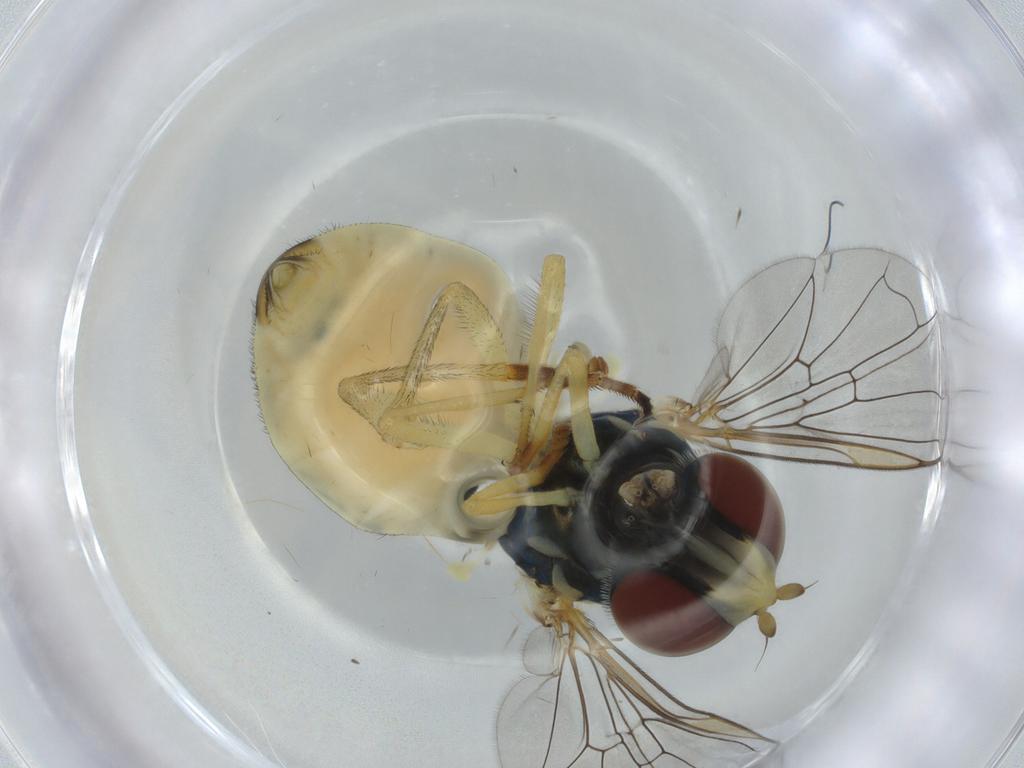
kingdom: Animalia
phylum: Arthropoda
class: Insecta
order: Diptera
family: Syrphidae
